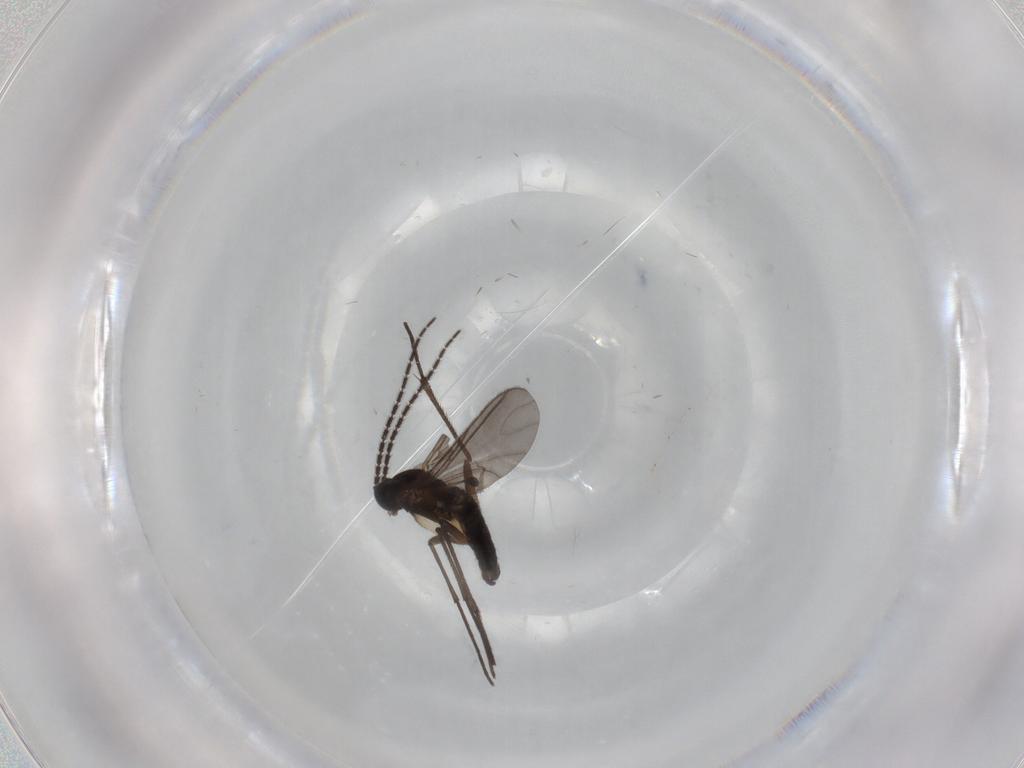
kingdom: Animalia
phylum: Arthropoda
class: Insecta
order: Diptera
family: Sciaridae
